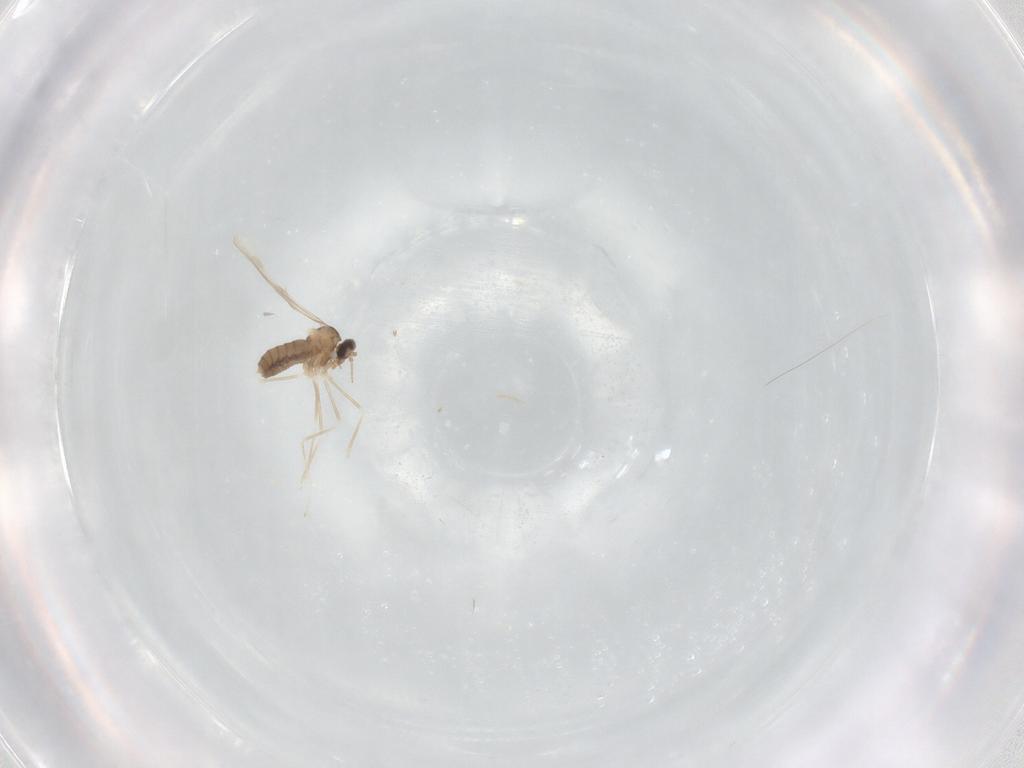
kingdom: Animalia
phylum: Arthropoda
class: Insecta
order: Diptera
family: Cecidomyiidae
